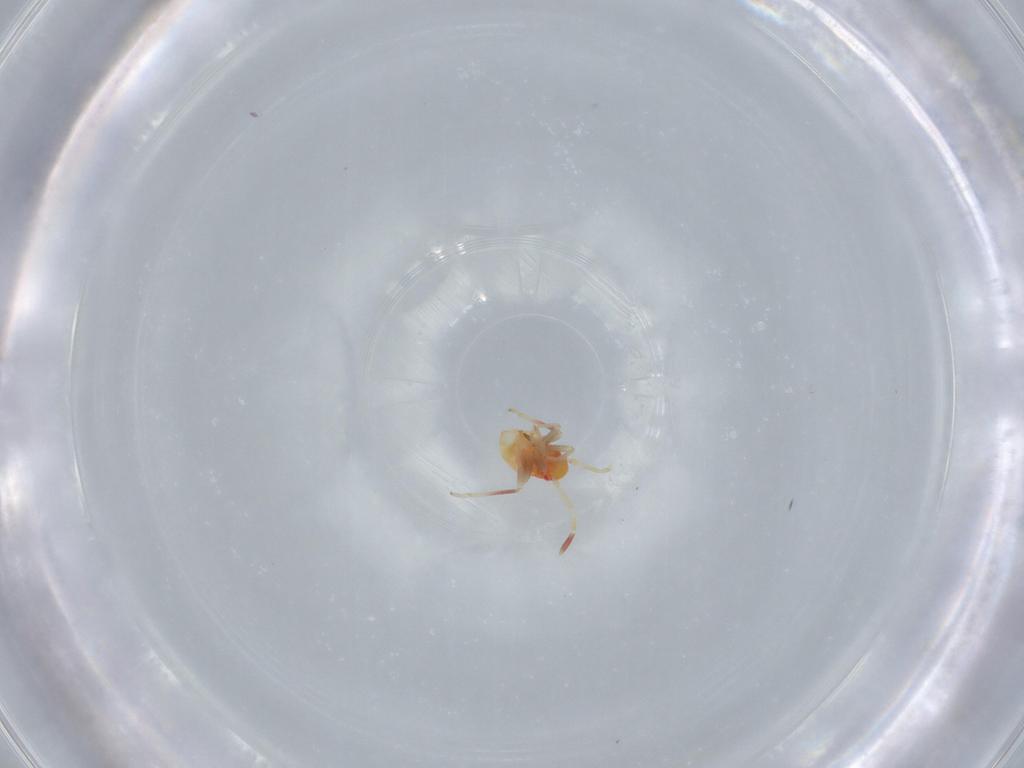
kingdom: Animalia
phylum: Arthropoda
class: Insecta
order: Hemiptera
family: Miridae
